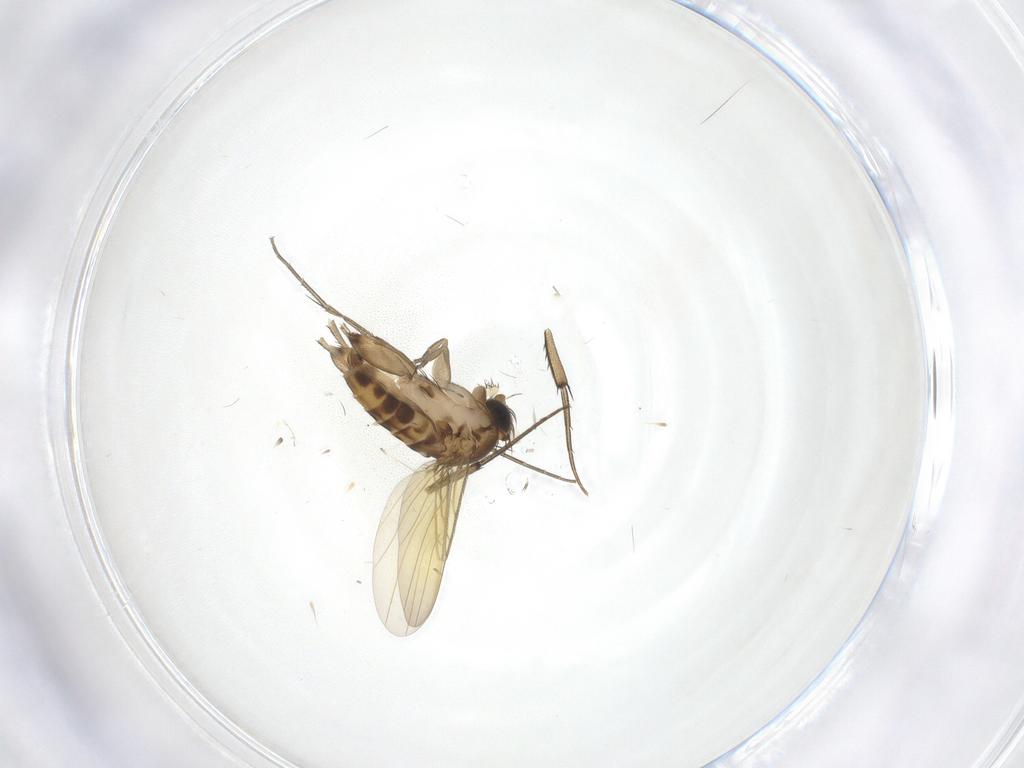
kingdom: Animalia
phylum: Arthropoda
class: Insecta
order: Diptera
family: Phoridae
